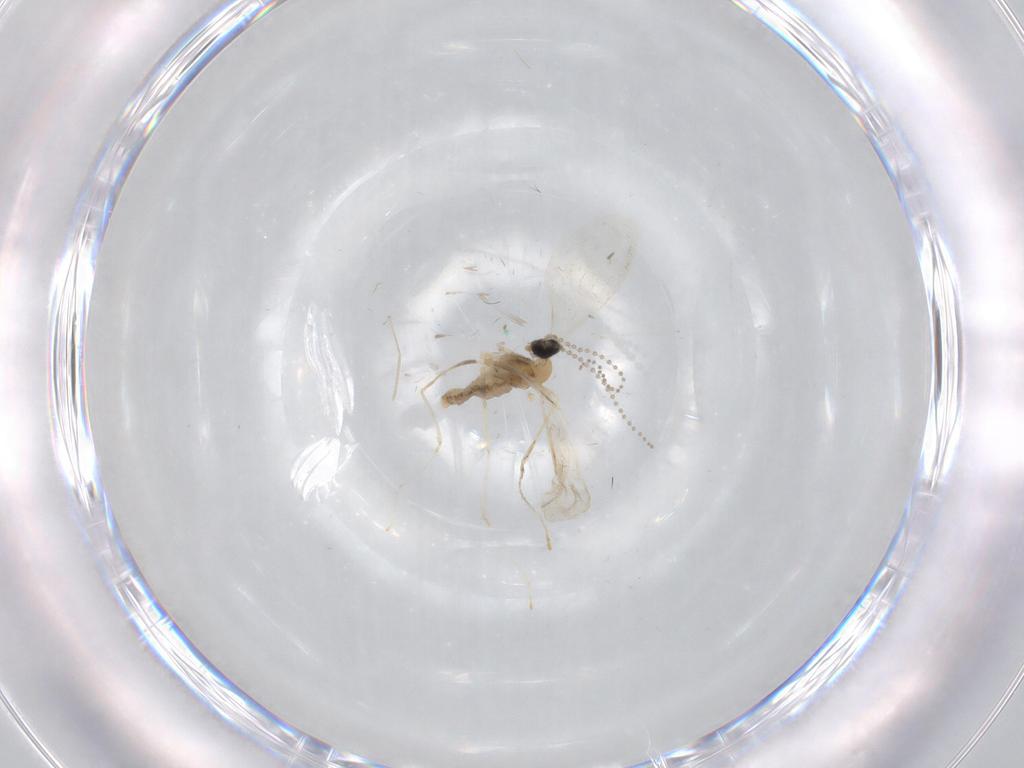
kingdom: Animalia
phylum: Arthropoda
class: Insecta
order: Diptera
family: Cecidomyiidae
